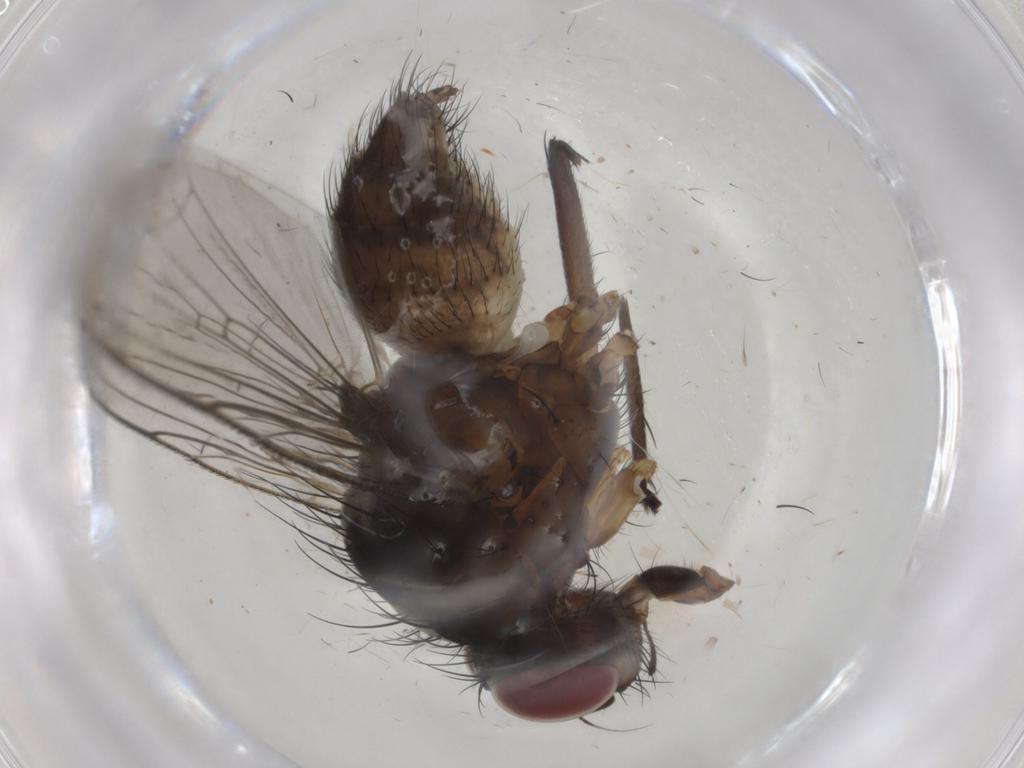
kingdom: Animalia
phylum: Arthropoda
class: Insecta
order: Diptera
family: Anthomyiidae
